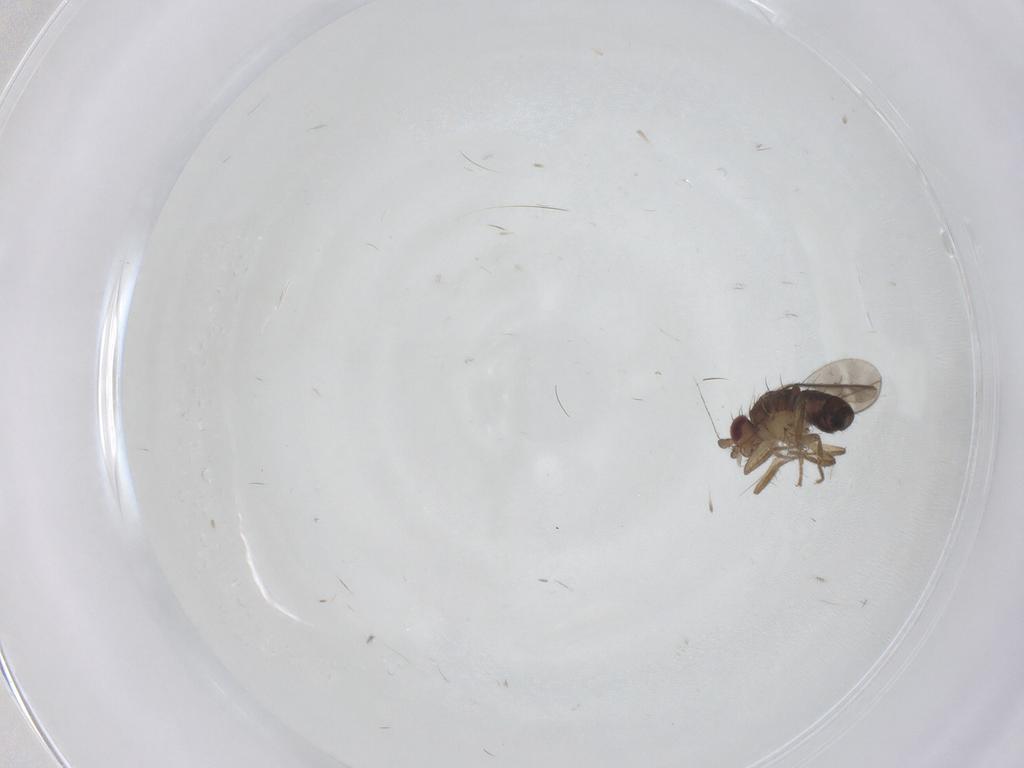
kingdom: Animalia
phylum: Arthropoda
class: Insecta
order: Diptera
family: Sphaeroceridae
